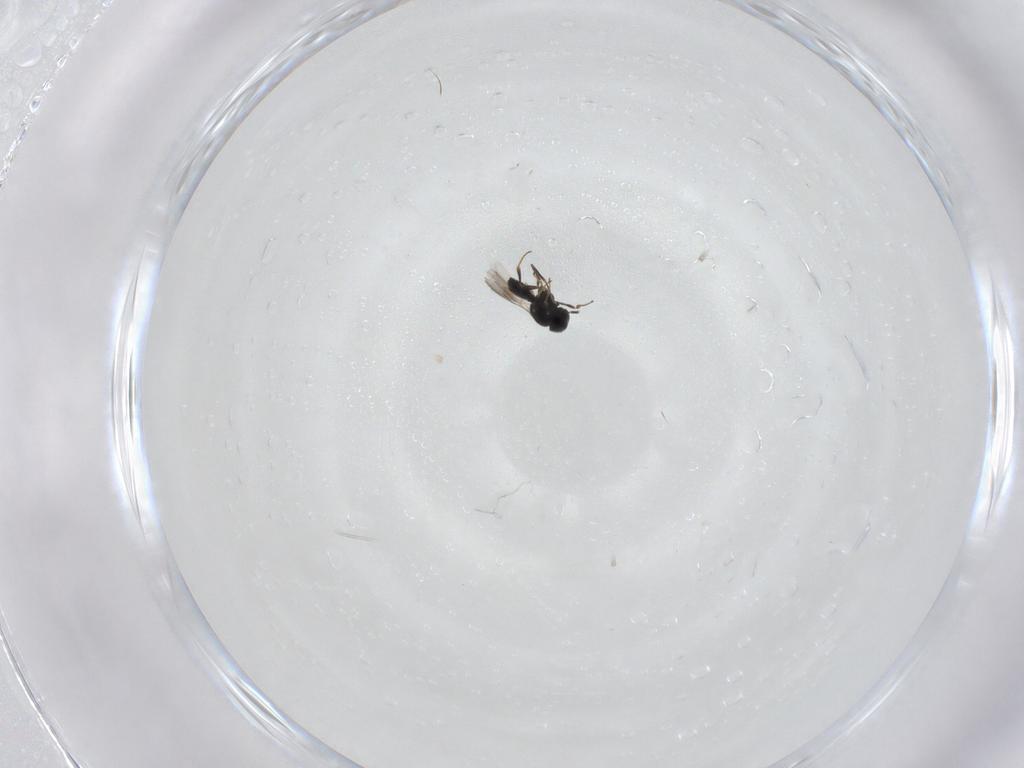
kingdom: Animalia
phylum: Arthropoda
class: Insecta
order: Hymenoptera
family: Scelionidae
